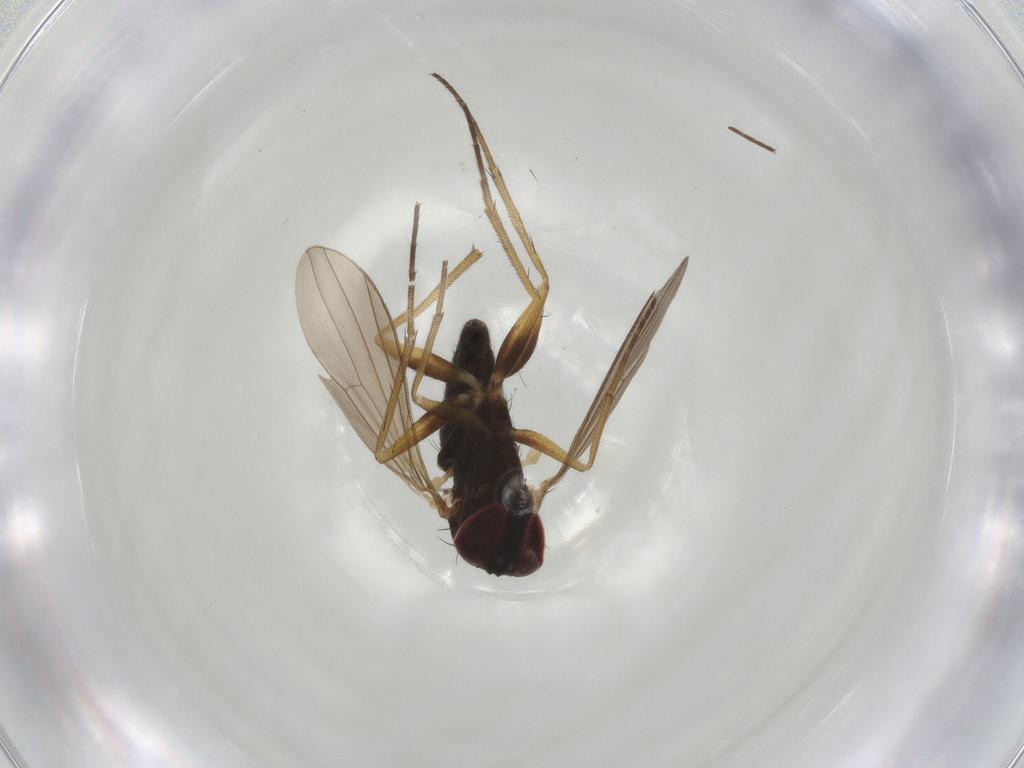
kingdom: Animalia
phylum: Arthropoda
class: Insecta
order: Diptera
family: Dolichopodidae
